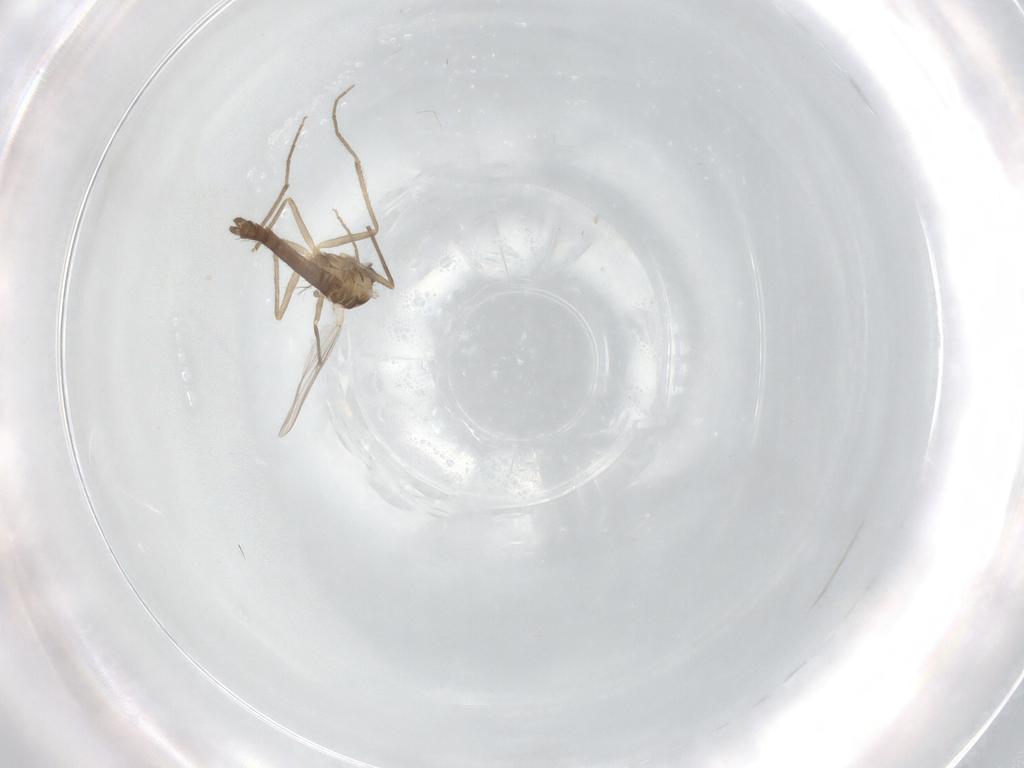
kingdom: Animalia
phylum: Arthropoda
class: Insecta
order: Diptera
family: Chironomidae
